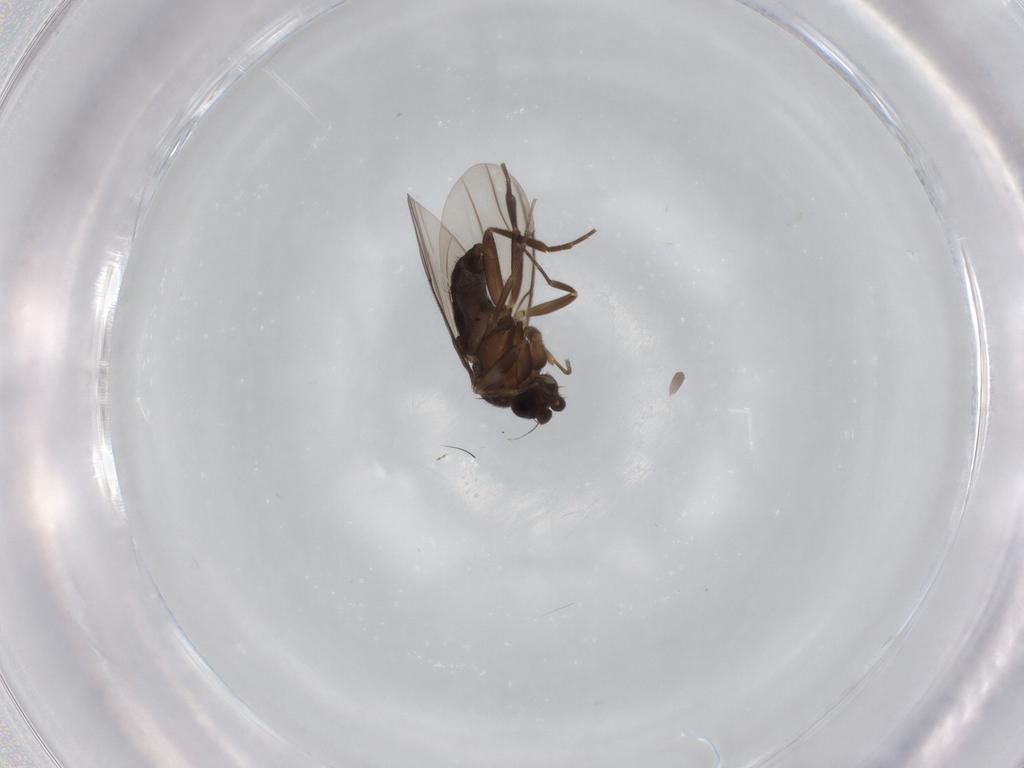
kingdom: Animalia
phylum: Arthropoda
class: Insecta
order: Diptera
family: Phoridae
